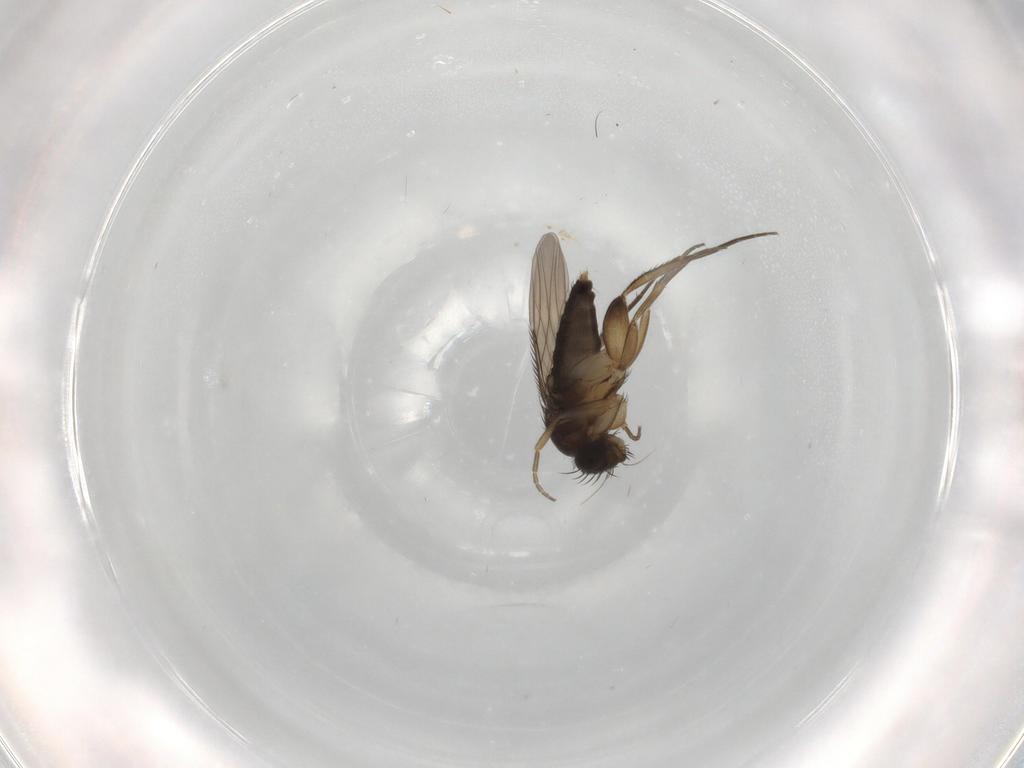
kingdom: Animalia
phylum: Arthropoda
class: Insecta
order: Diptera
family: Phoridae
